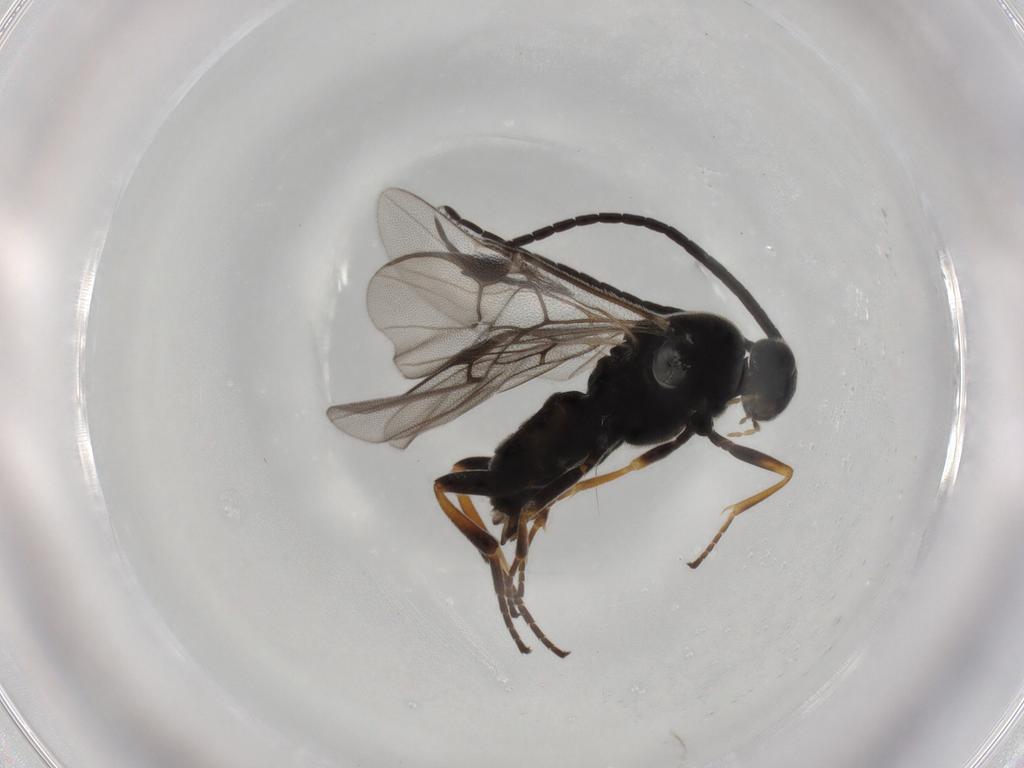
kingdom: Animalia
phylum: Arthropoda
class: Insecta
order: Hymenoptera
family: Braconidae
